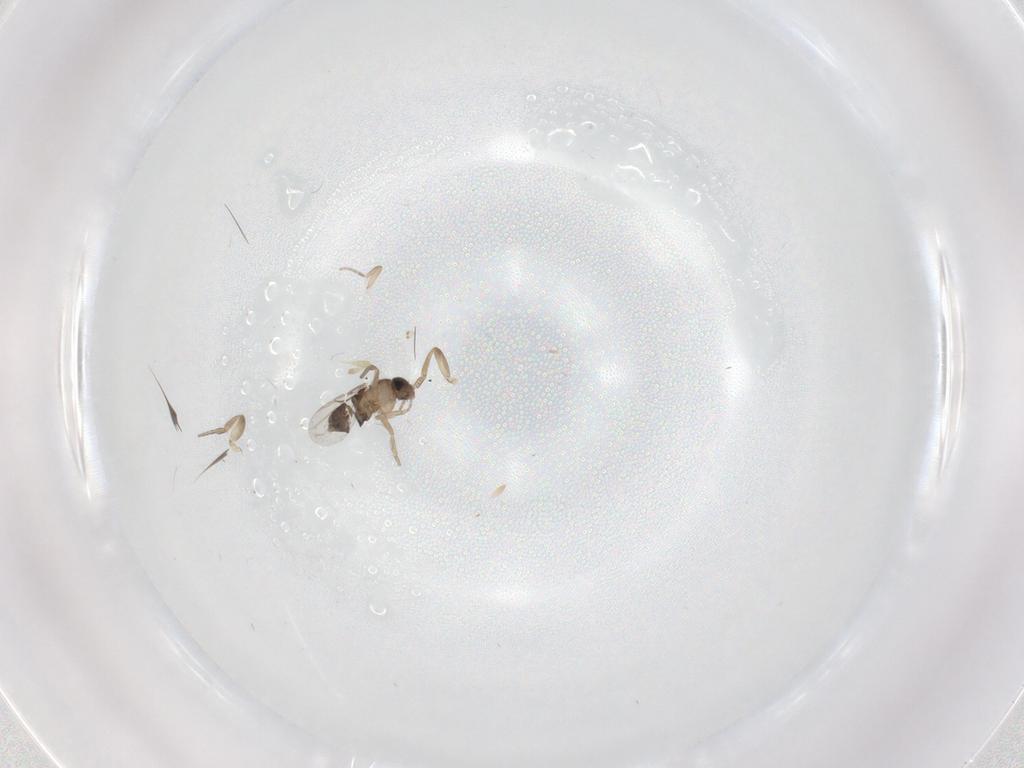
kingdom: Animalia
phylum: Arthropoda
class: Insecta
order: Diptera
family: Phoridae
